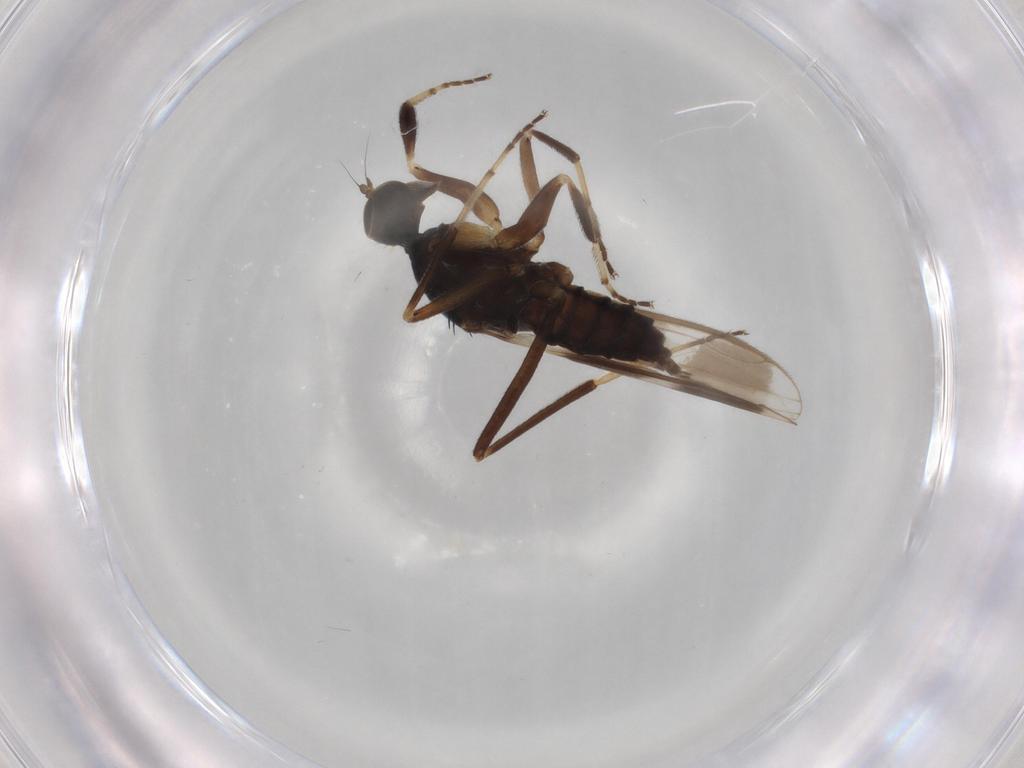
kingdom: Animalia
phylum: Arthropoda
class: Insecta
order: Diptera
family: Hybotidae
